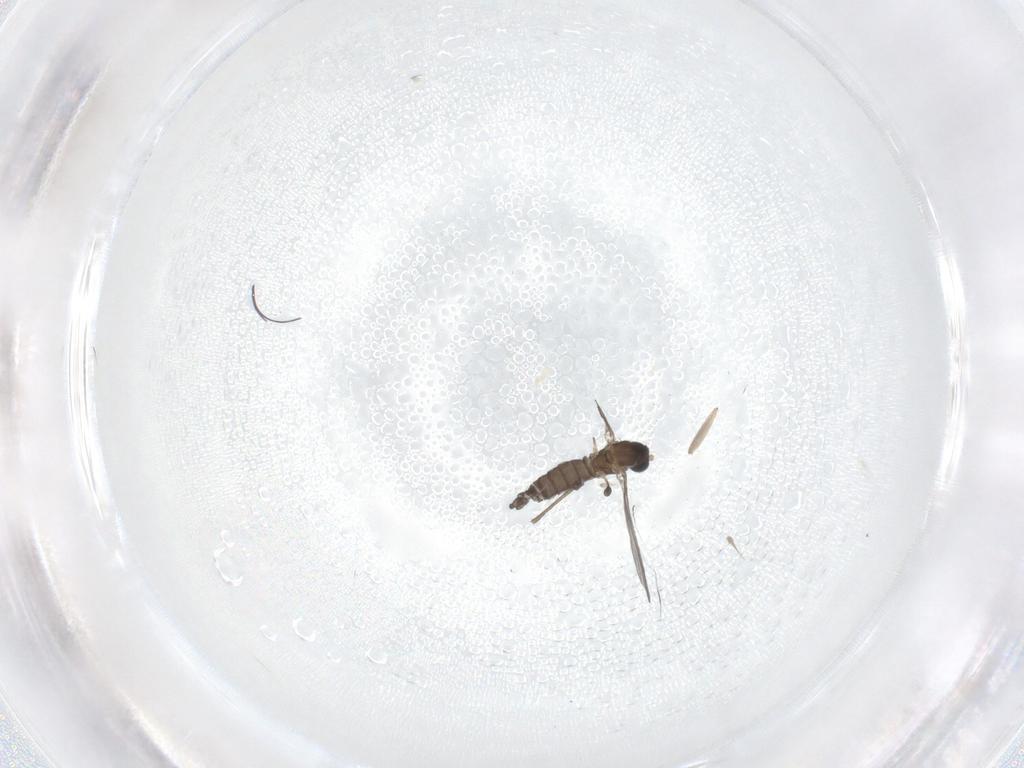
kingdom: Animalia
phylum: Arthropoda
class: Insecta
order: Diptera
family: Sciaridae
